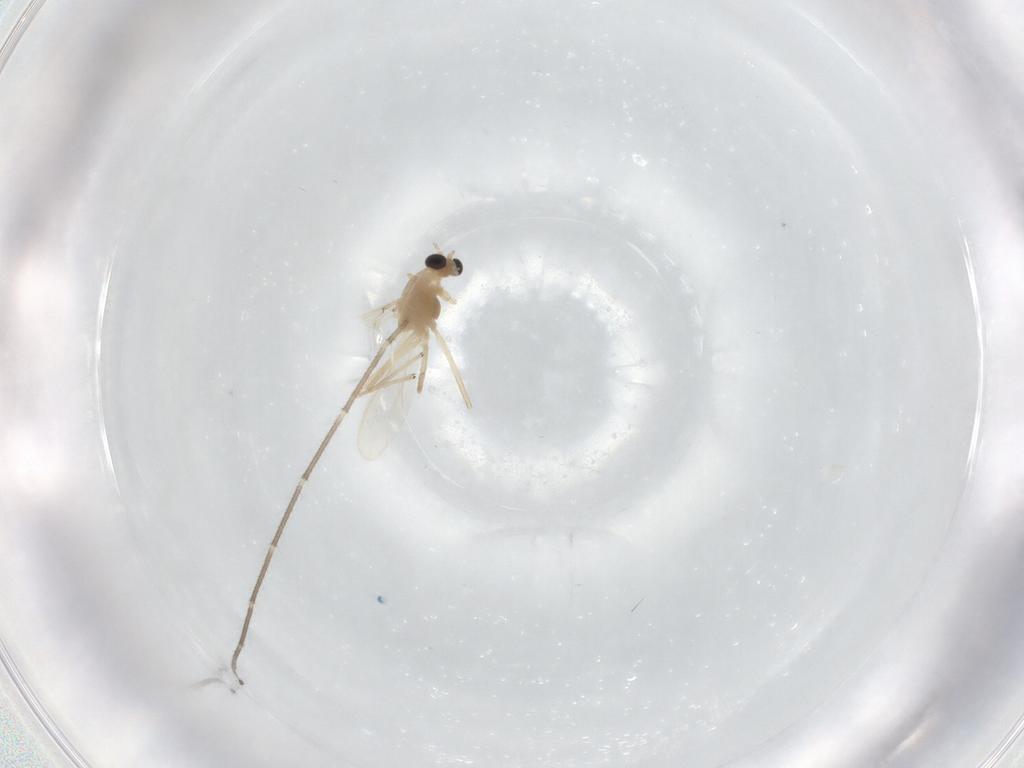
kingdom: Animalia
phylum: Arthropoda
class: Insecta
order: Diptera
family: Chironomidae
